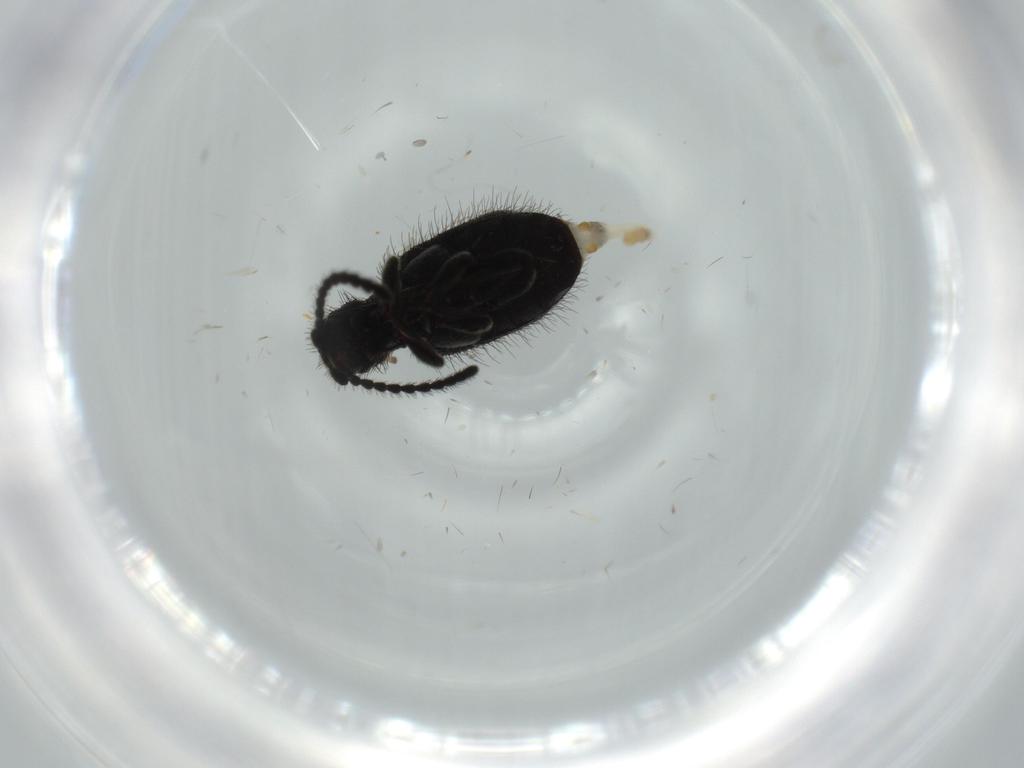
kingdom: Animalia
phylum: Arthropoda
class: Insecta
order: Coleoptera
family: Ptinidae
